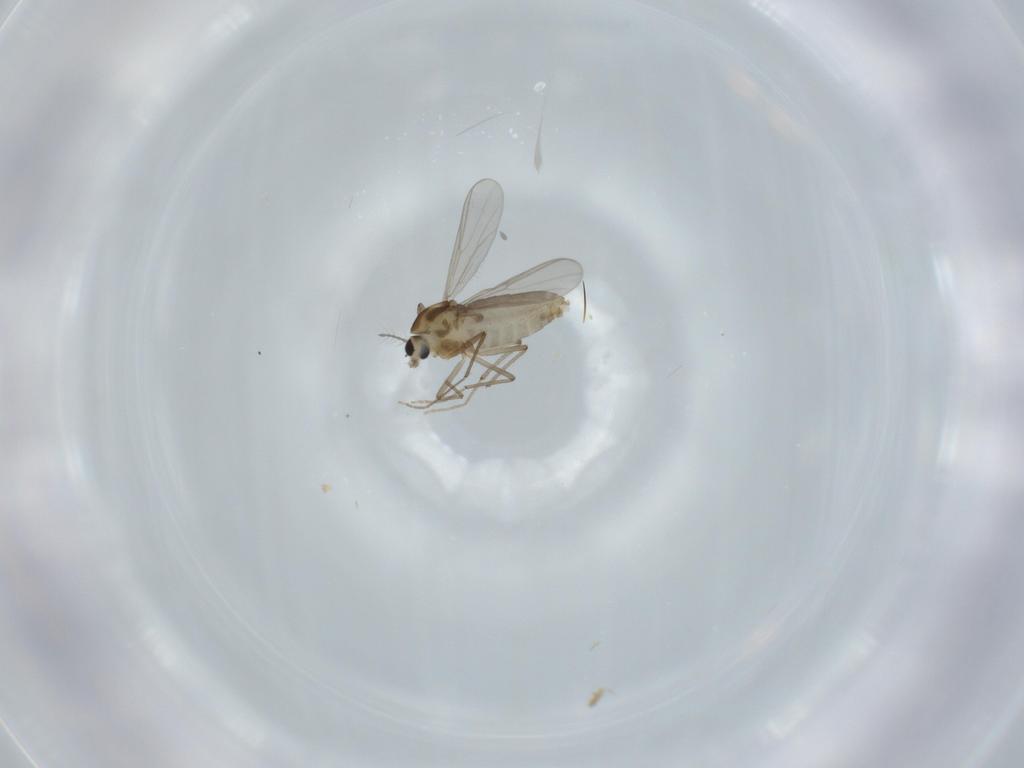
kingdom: Animalia
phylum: Arthropoda
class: Insecta
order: Diptera
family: Chironomidae
